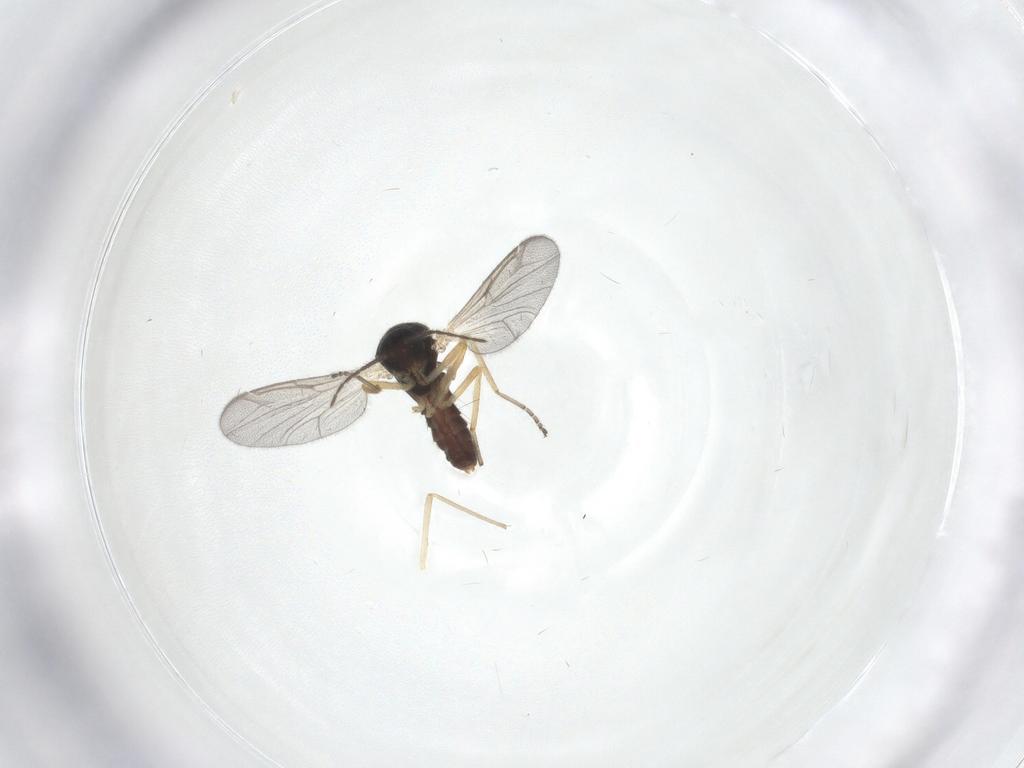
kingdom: Animalia
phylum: Arthropoda
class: Insecta
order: Diptera
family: Ceratopogonidae
